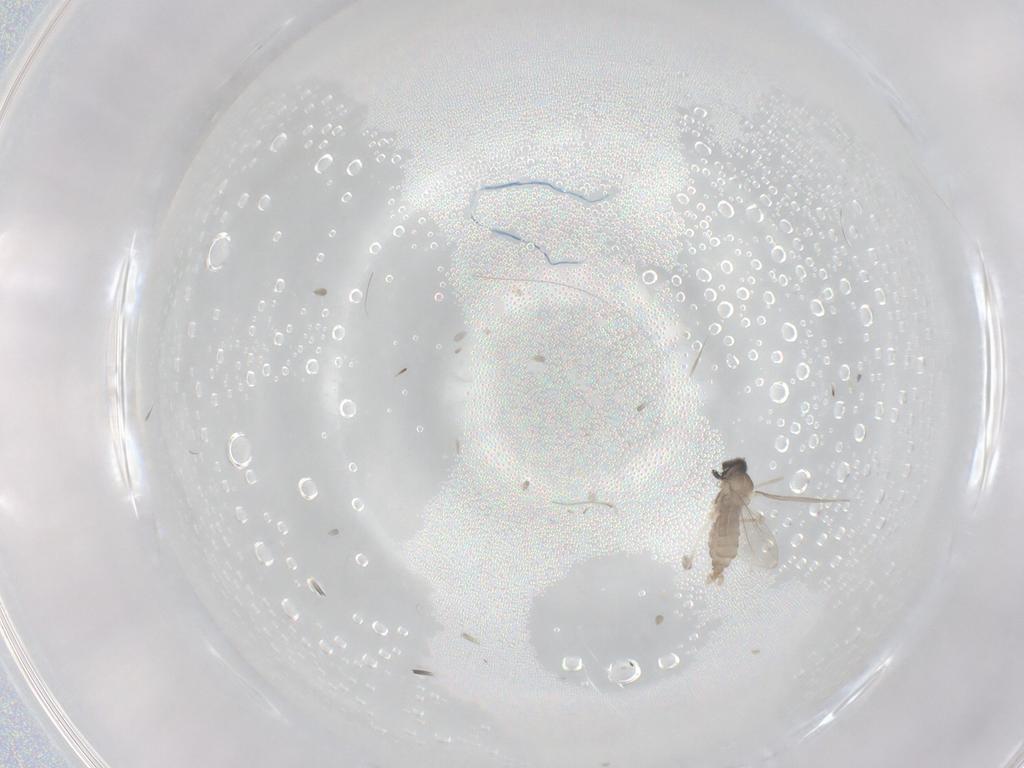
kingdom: Animalia
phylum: Arthropoda
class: Insecta
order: Diptera
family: Cecidomyiidae
